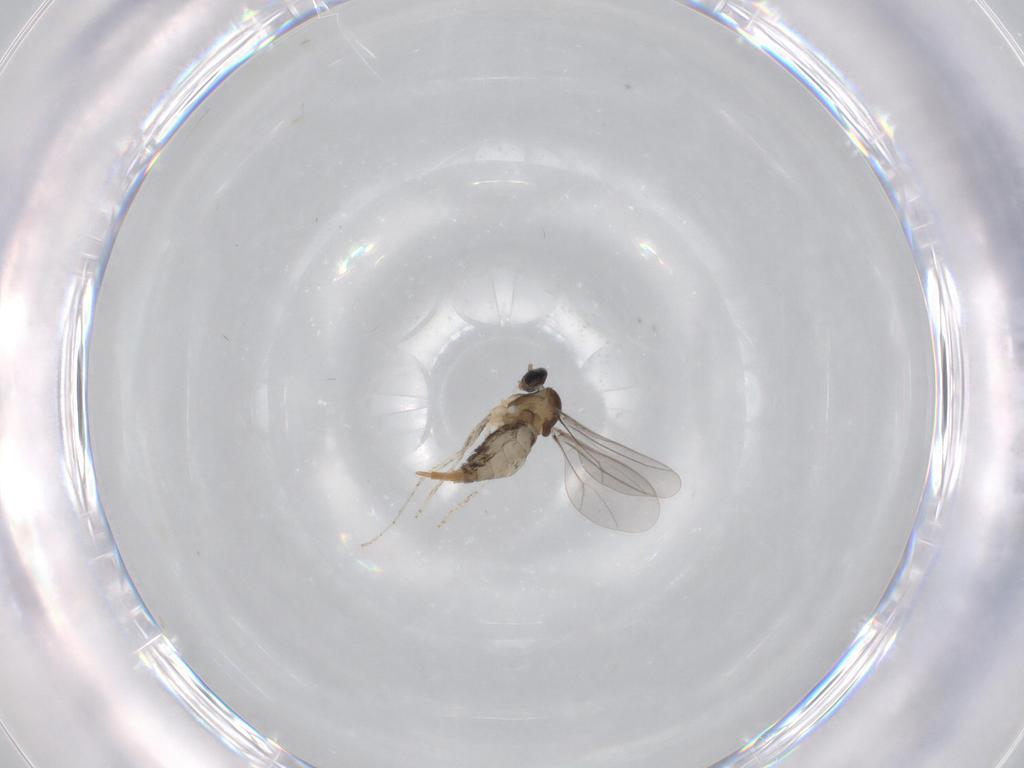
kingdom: Animalia
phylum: Arthropoda
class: Insecta
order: Diptera
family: Cecidomyiidae
